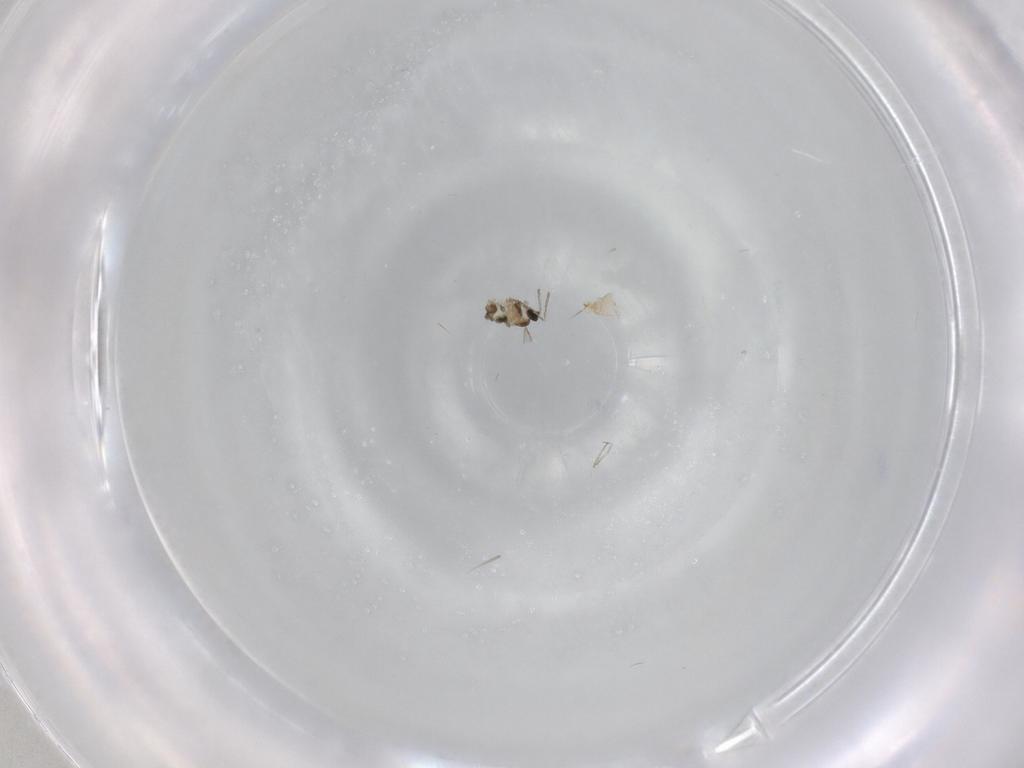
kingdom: Animalia
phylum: Arthropoda
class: Insecta
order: Diptera
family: Cecidomyiidae
